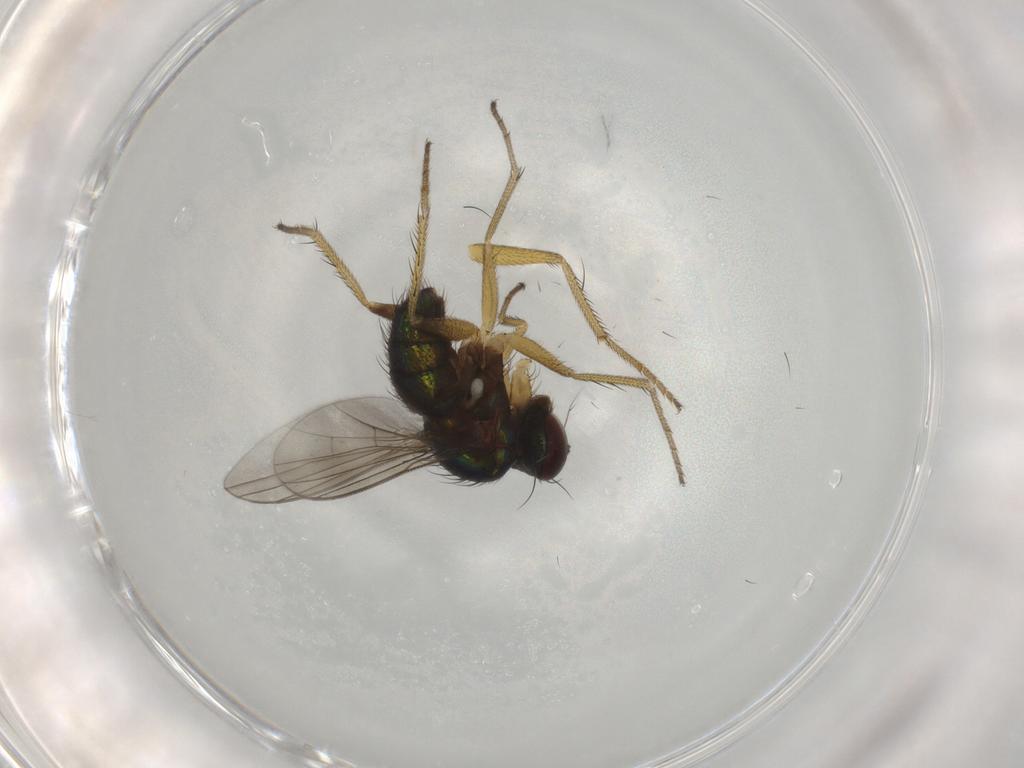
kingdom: Animalia
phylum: Arthropoda
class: Insecta
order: Diptera
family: Dolichopodidae
